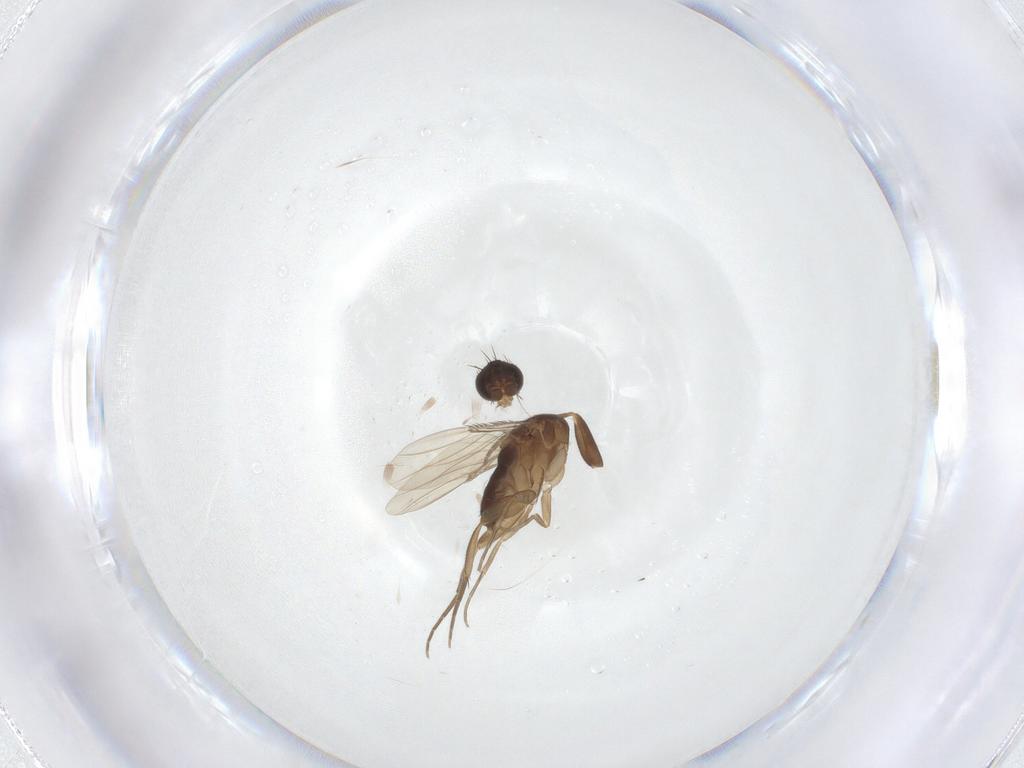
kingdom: Animalia
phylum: Arthropoda
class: Insecta
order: Diptera
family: Phoridae
